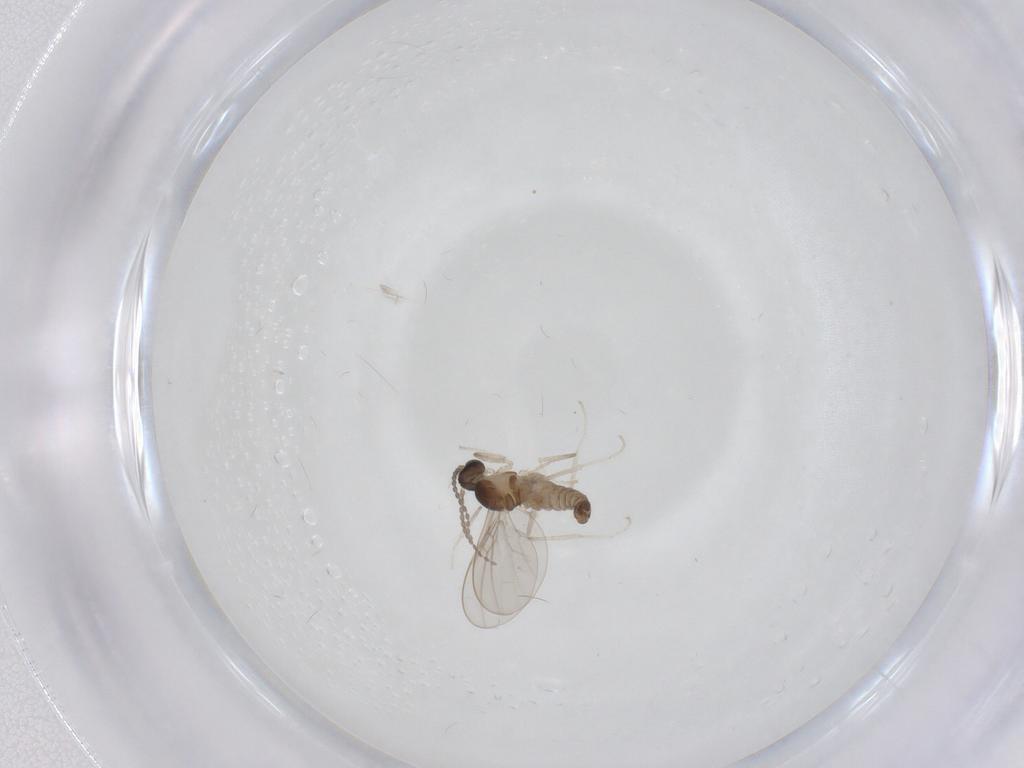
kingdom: Animalia
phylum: Arthropoda
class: Insecta
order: Diptera
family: Cecidomyiidae
